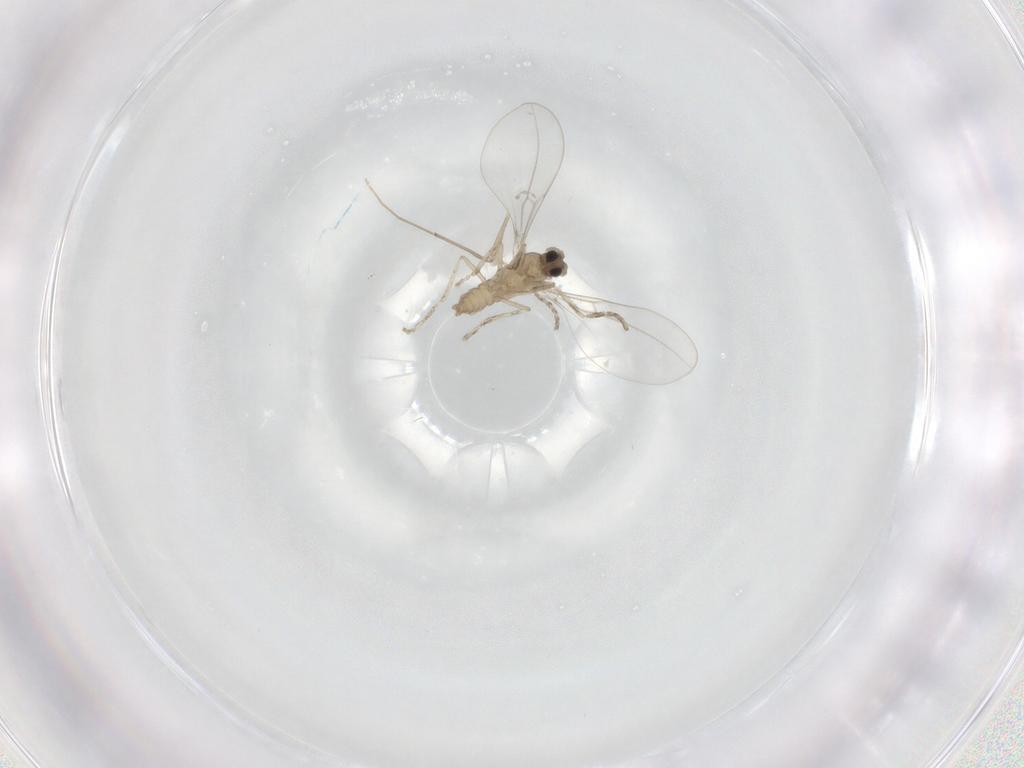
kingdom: Animalia
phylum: Arthropoda
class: Insecta
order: Diptera
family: Cecidomyiidae
